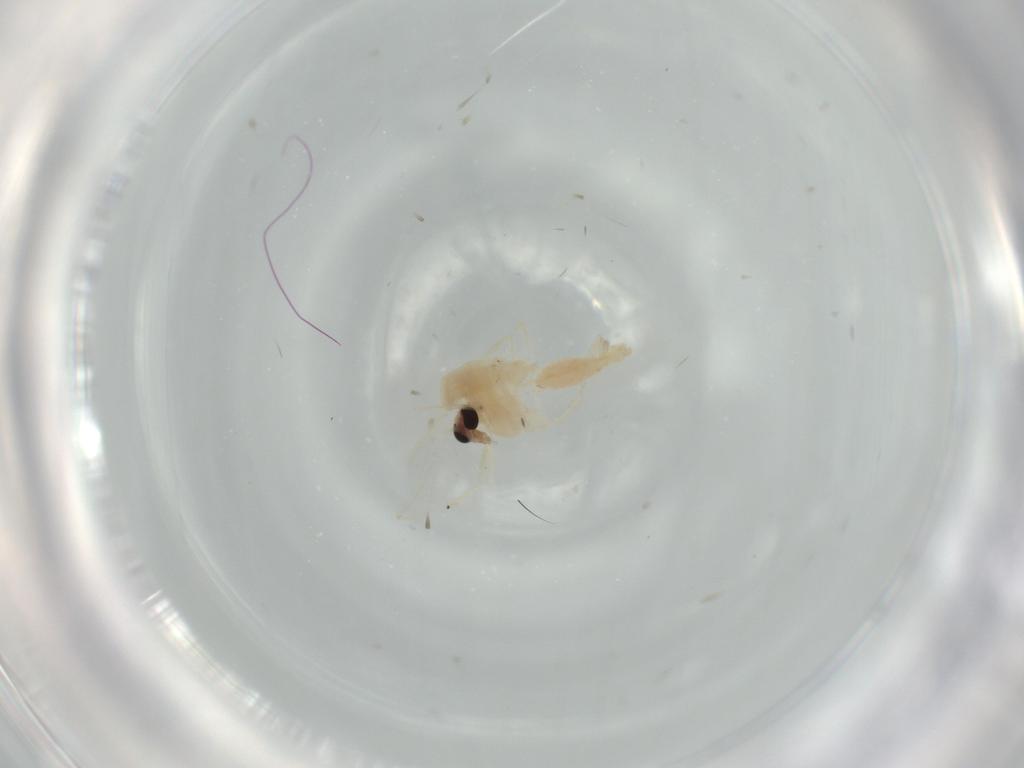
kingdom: Animalia
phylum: Arthropoda
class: Insecta
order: Diptera
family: Chironomidae
